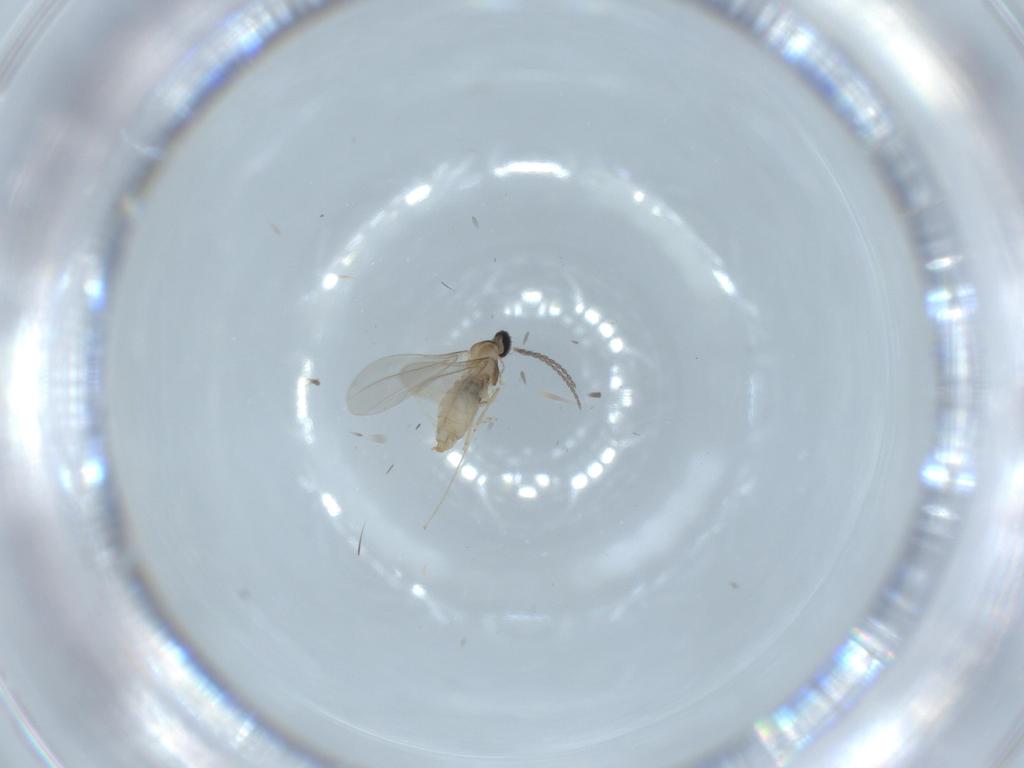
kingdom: Animalia
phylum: Arthropoda
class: Insecta
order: Diptera
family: Cecidomyiidae
